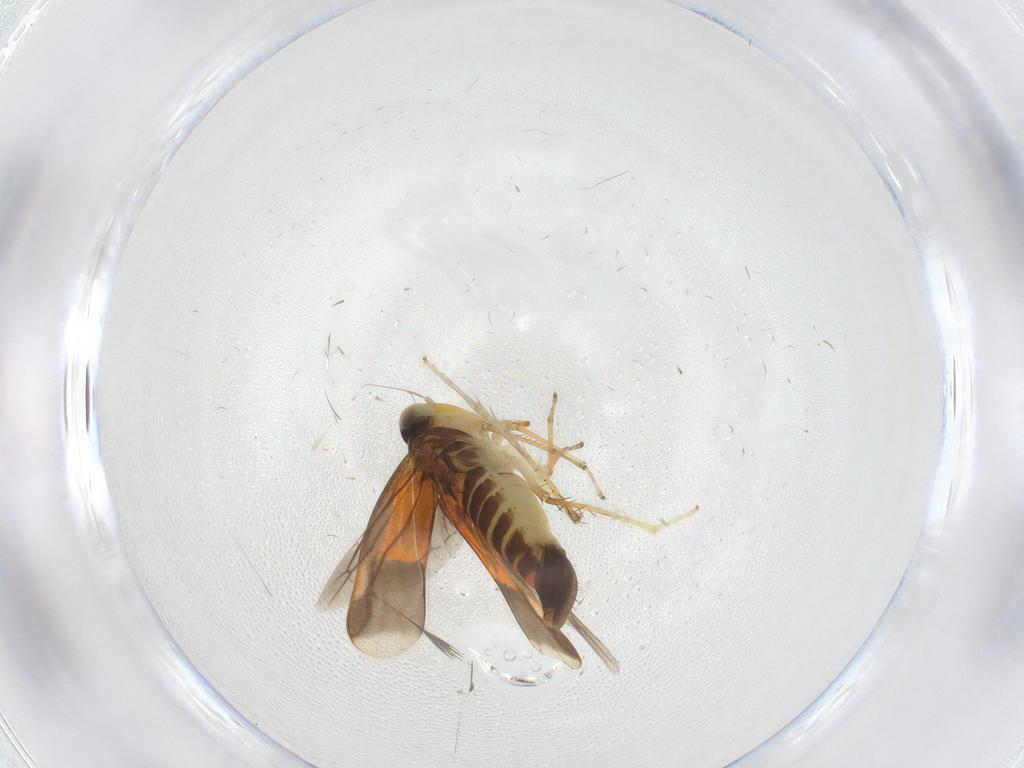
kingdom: Animalia
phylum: Arthropoda
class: Insecta
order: Hemiptera
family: Cicadellidae
